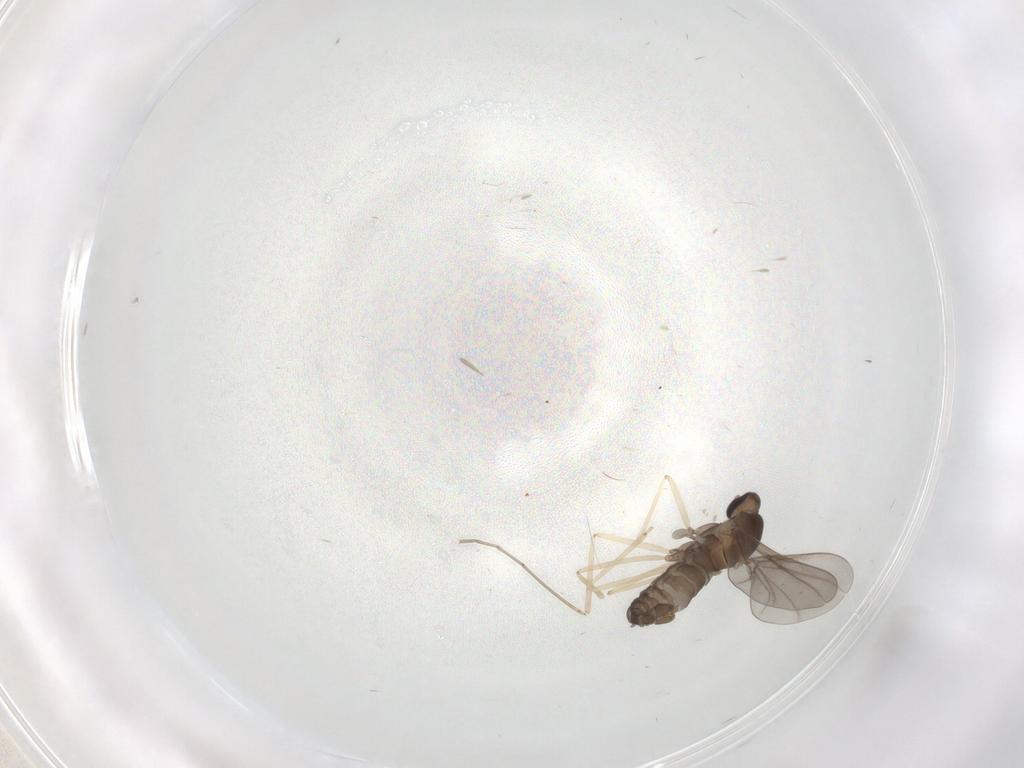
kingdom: Animalia
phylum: Arthropoda
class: Insecta
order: Diptera
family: Cecidomyiidae
